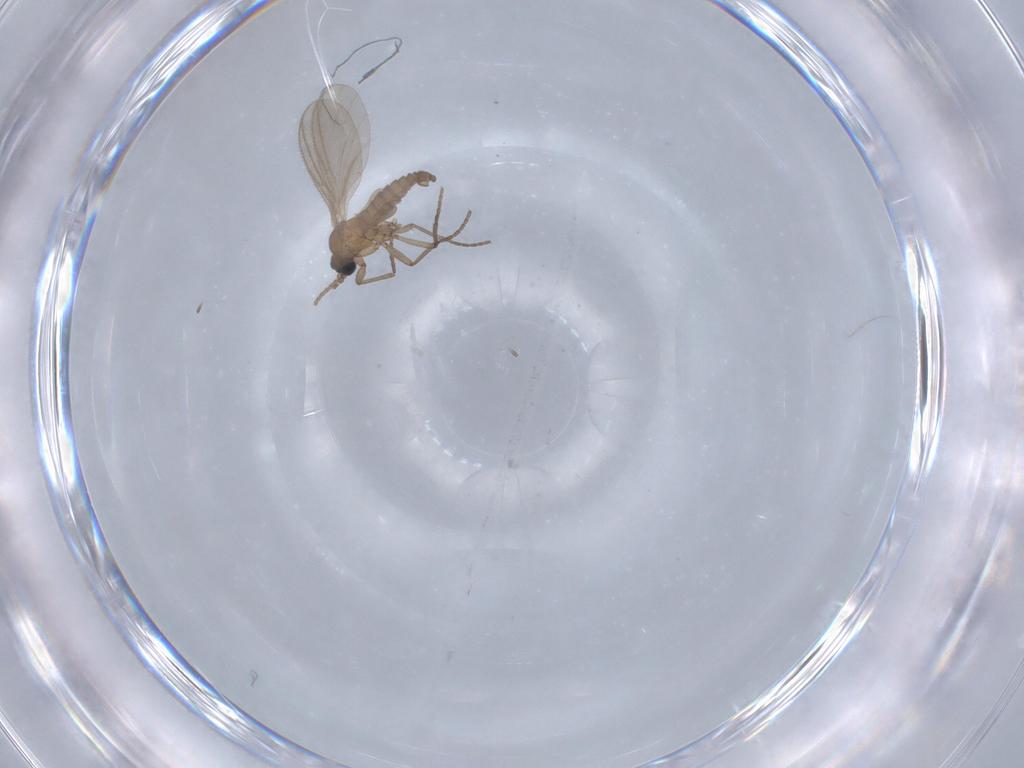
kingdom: Animalia
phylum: Arthropoda
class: Insecta
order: Diptera
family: Sciaridae
